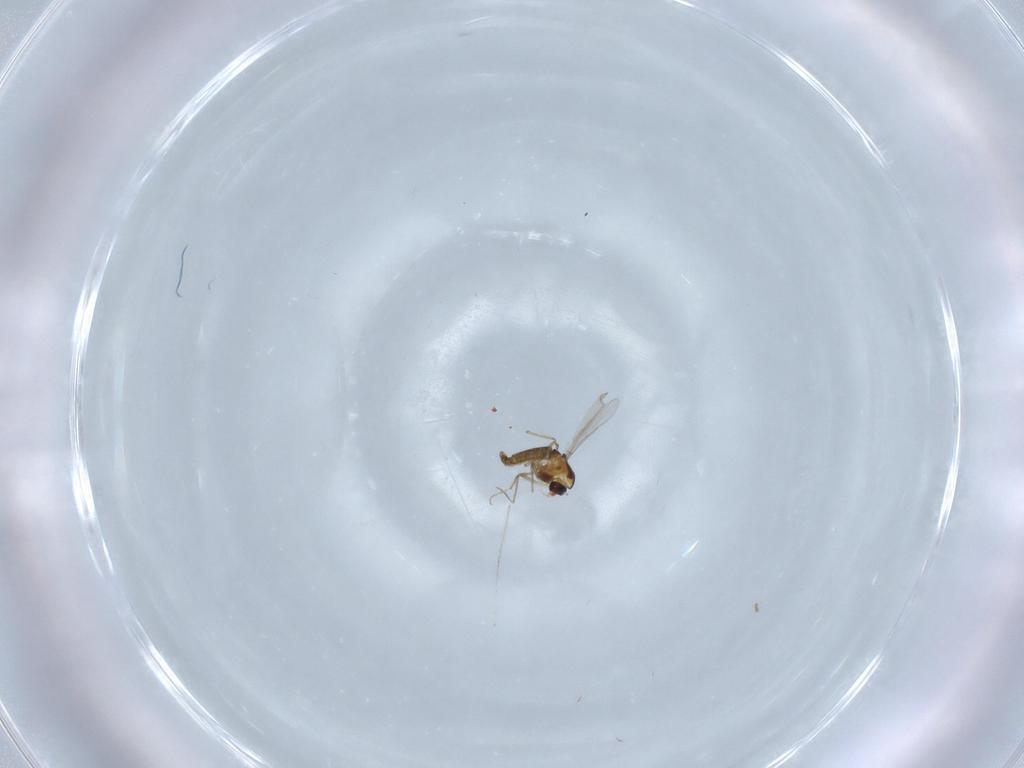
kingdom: Animalia
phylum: Arthropoda
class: Insecta
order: Diptera
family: Chironomidae
